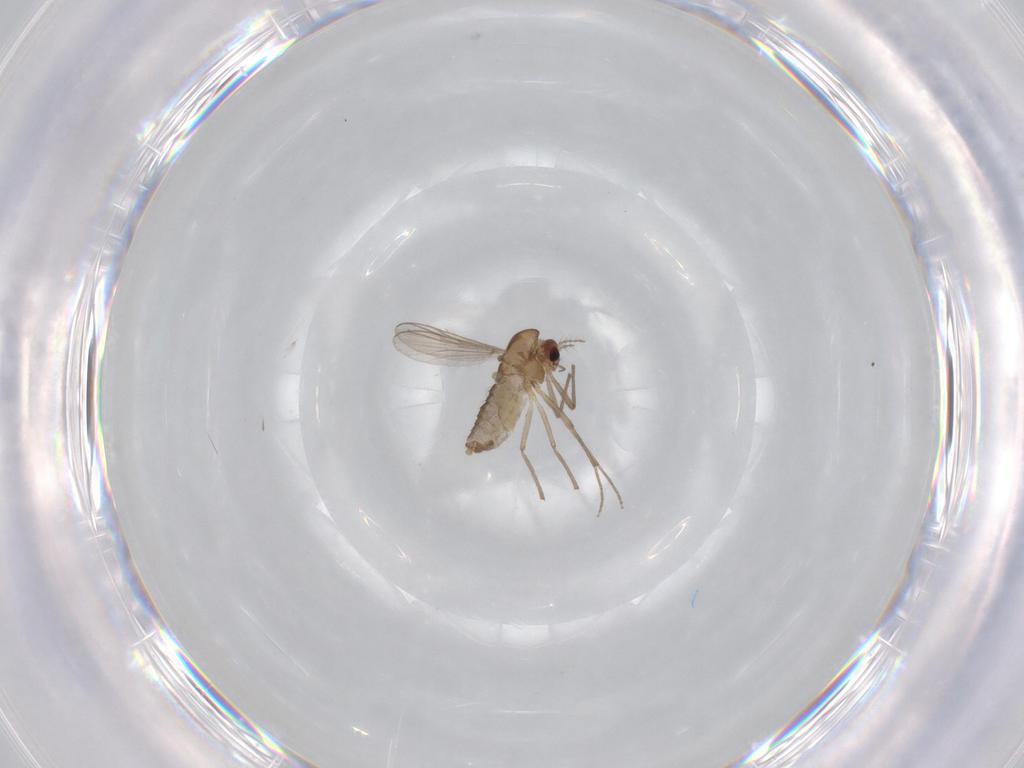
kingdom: Animalia
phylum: Arthropoda
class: Insecta
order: Diptera
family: Chironomidae
